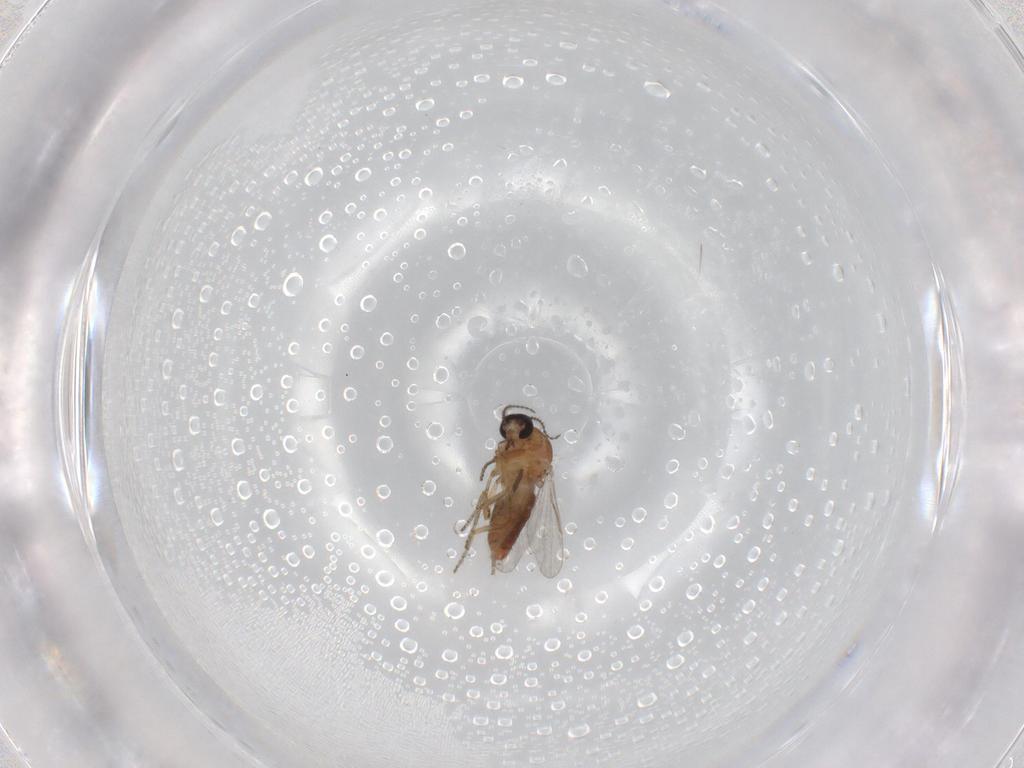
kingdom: Animalia
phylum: Arthropoda
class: Insecta
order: Diptera
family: Ceratopogonidae
